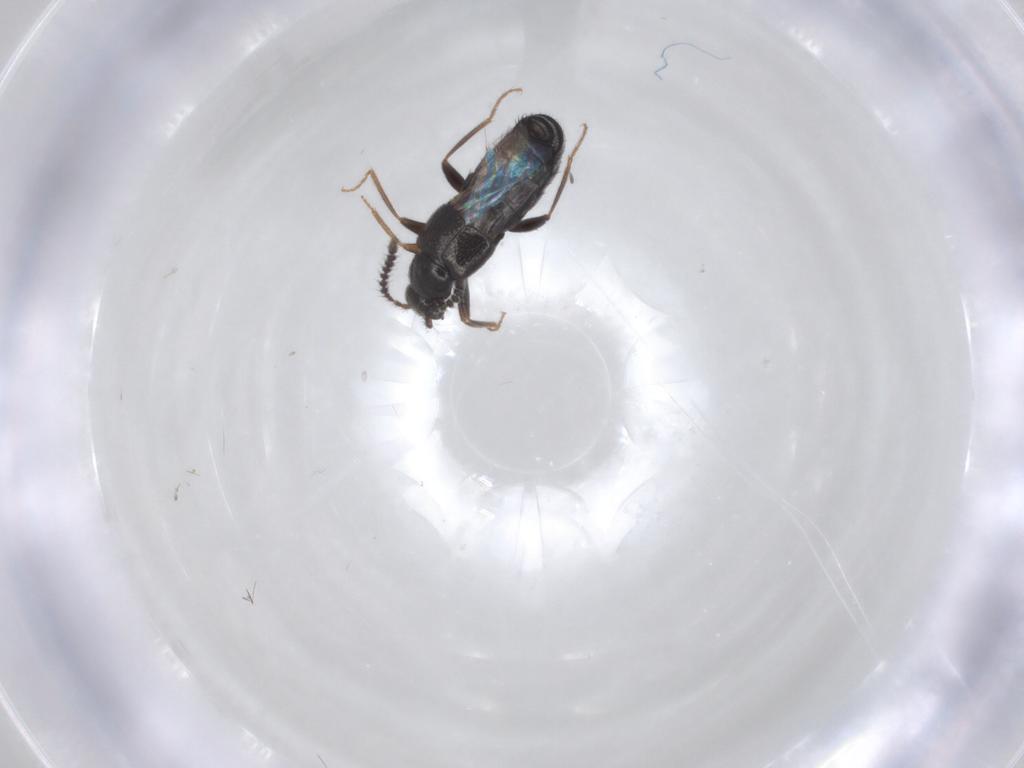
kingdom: Animalia
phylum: Arthropoda
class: Insecta
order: Coleoptera
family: Staphylinidae
